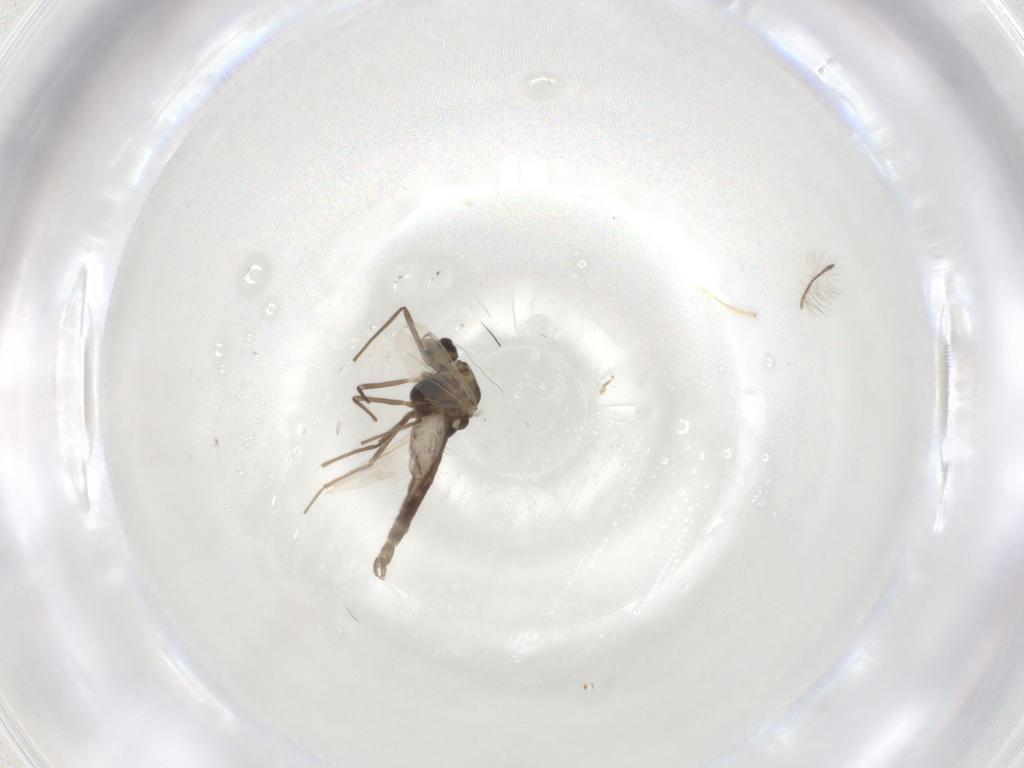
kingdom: Animalia
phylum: Arthropoda
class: Insecta
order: Diptera
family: Chironomidae
